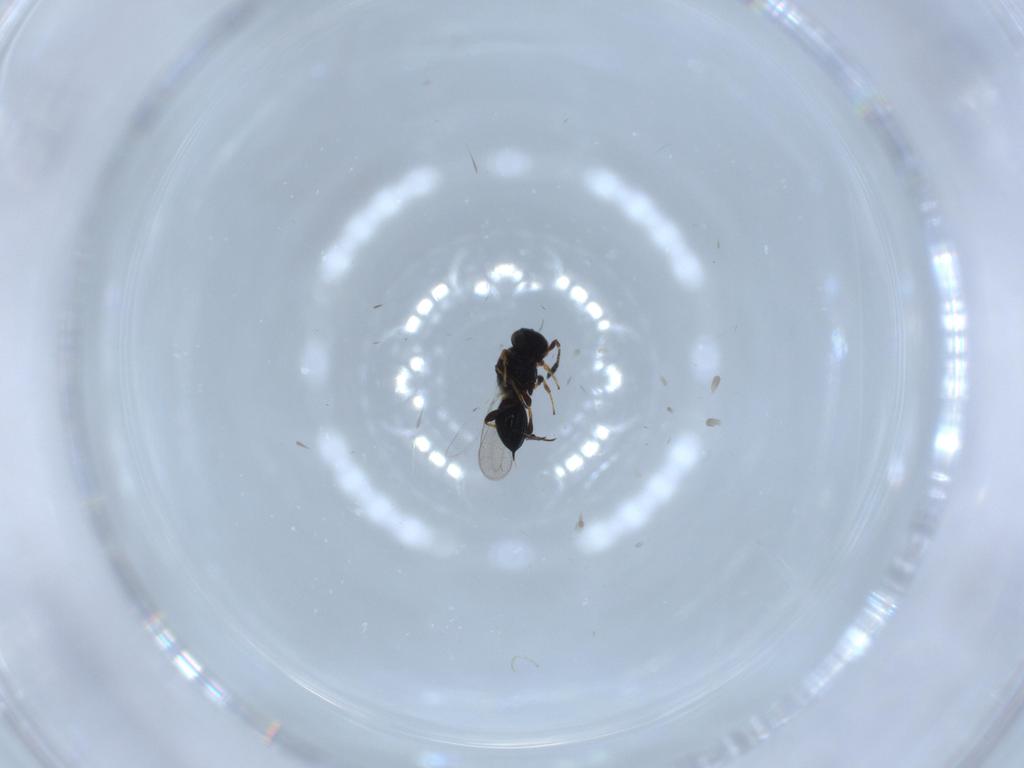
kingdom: Animalia
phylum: Arthropoda
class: Insecta
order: Hymenoptera
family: Platygastridae
